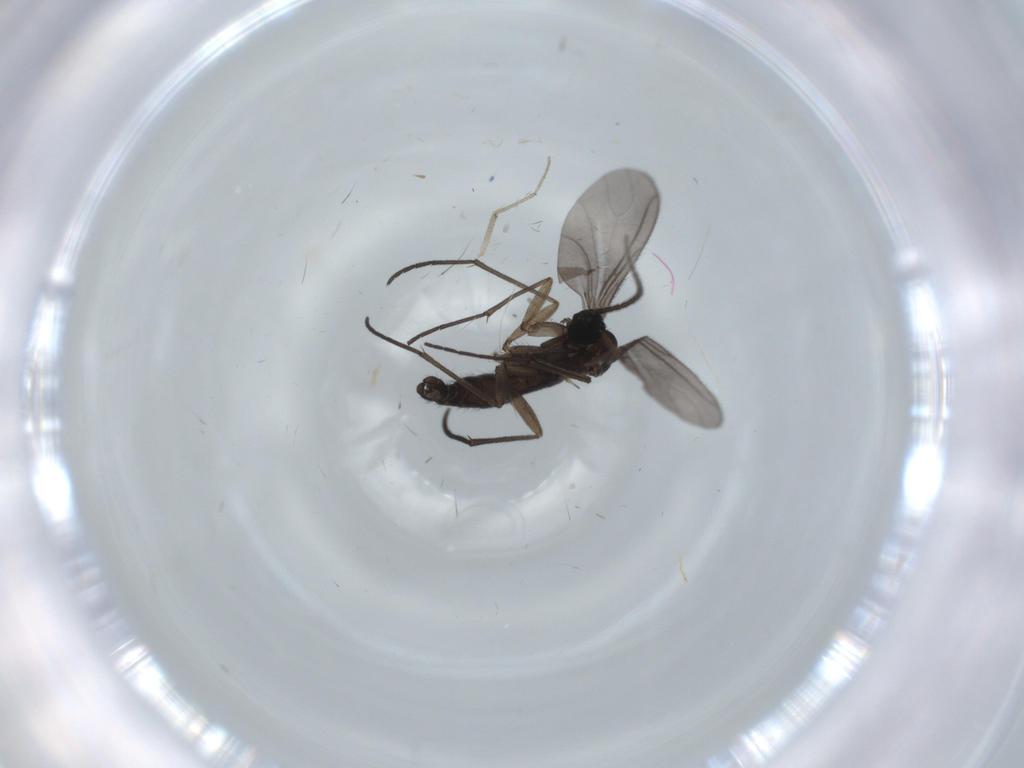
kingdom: Animalia
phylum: Arthropoda
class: Insecta
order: Diptera
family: Sciaridae
